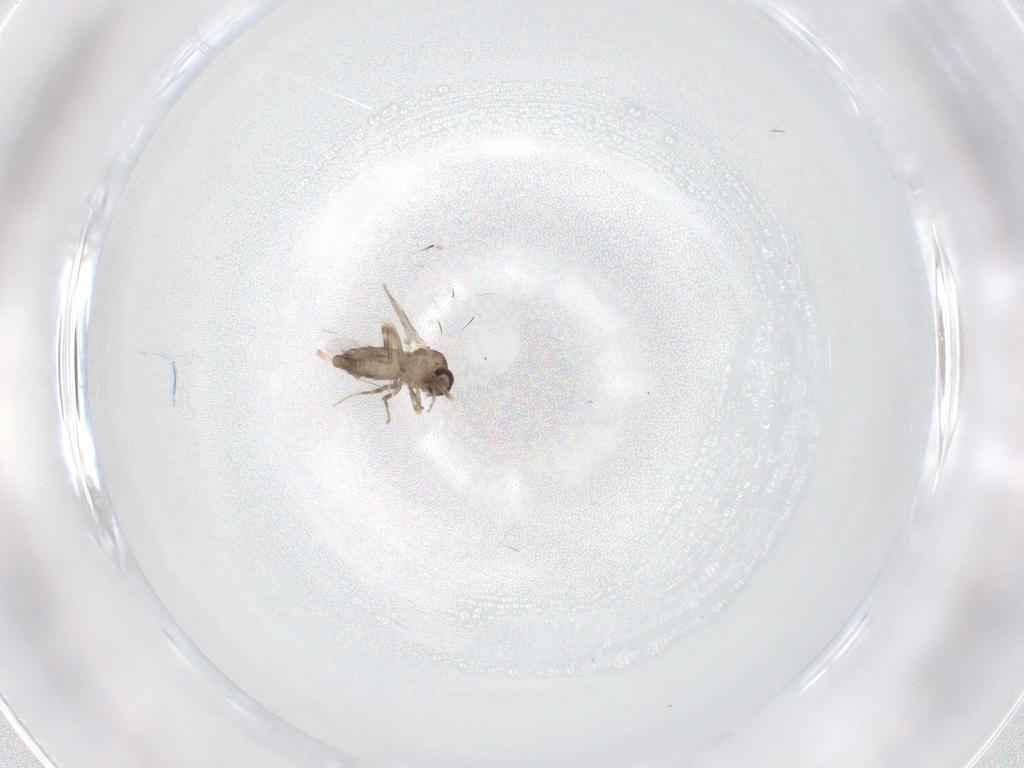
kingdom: Animalia
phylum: Arthropoda
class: Insecta
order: Diptera
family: Ceratopogonidae
